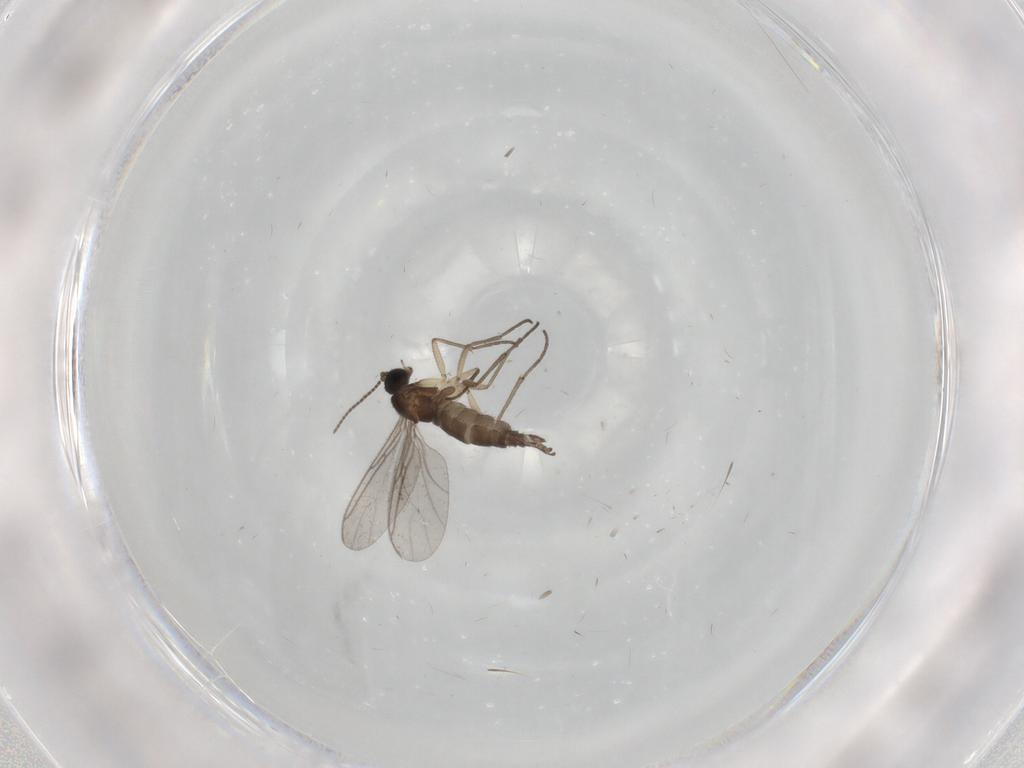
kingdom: Animalia
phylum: Arthropoda
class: Insecta
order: Diptera
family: Sciaridae
